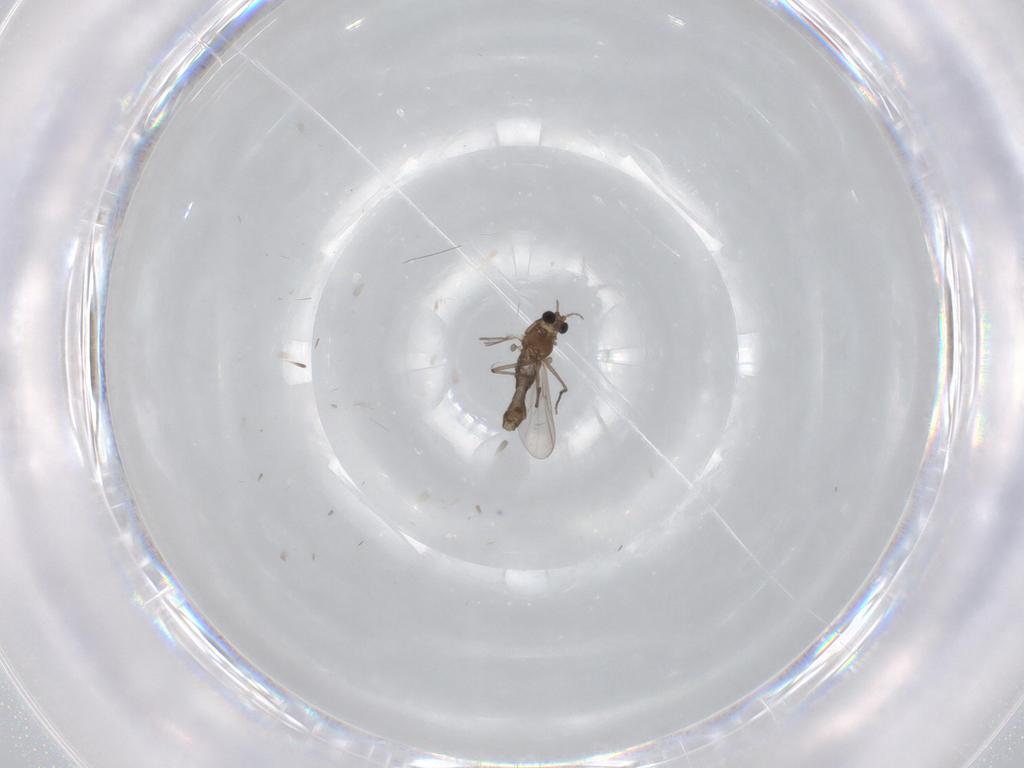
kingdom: Animalia
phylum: Arthropoda
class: Insecta
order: Diptera
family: Chironomidae
